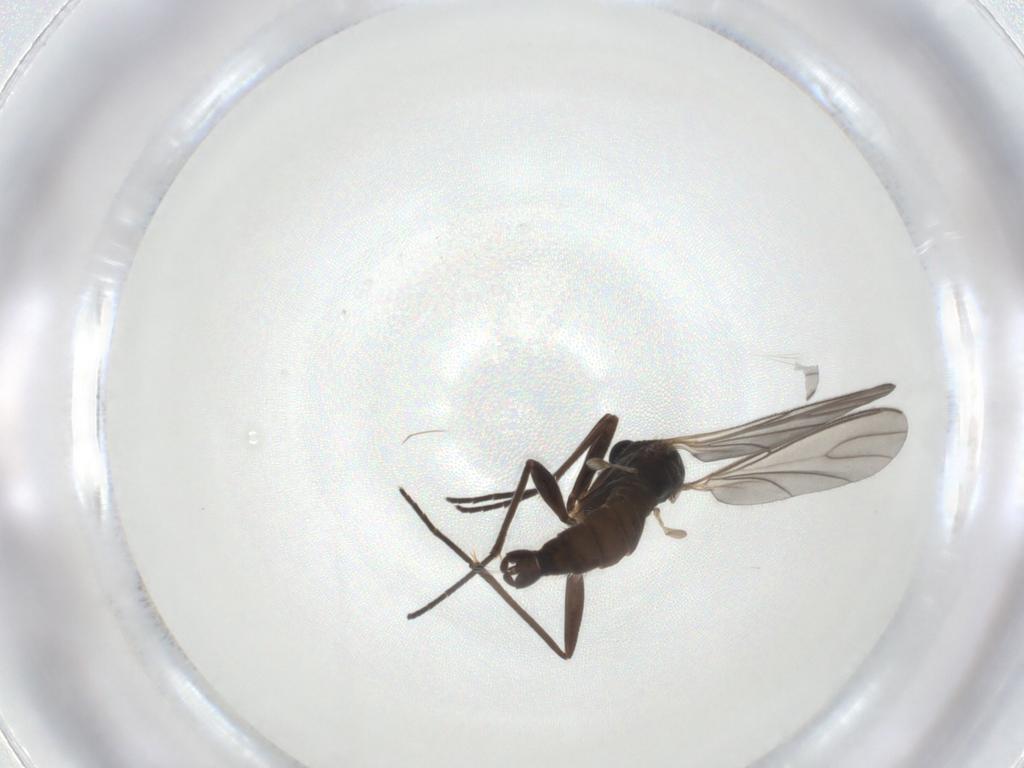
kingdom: Animalia
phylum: Arthropoda
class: Insecta
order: Diptera
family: Sciaridae
